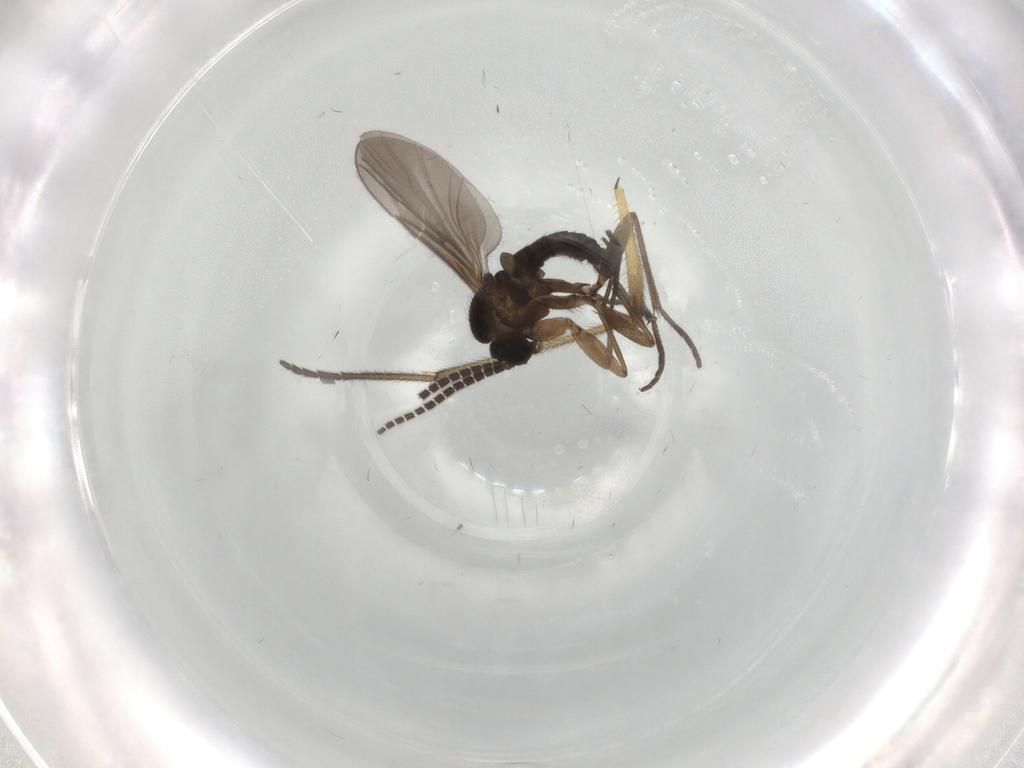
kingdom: Animalia
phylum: Arthropoda
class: Insecta
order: Diptera
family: Sciaridae
